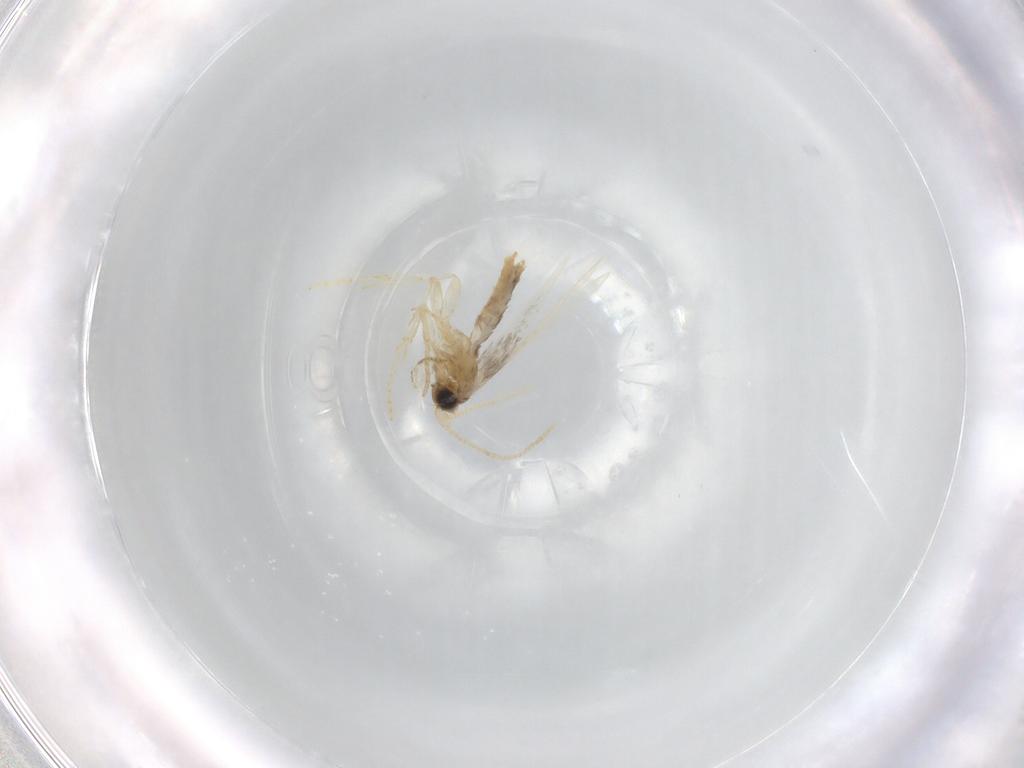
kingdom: Animalia
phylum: Arthropoda
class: Insecta
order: Lepidoptera
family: Nepticulidae
